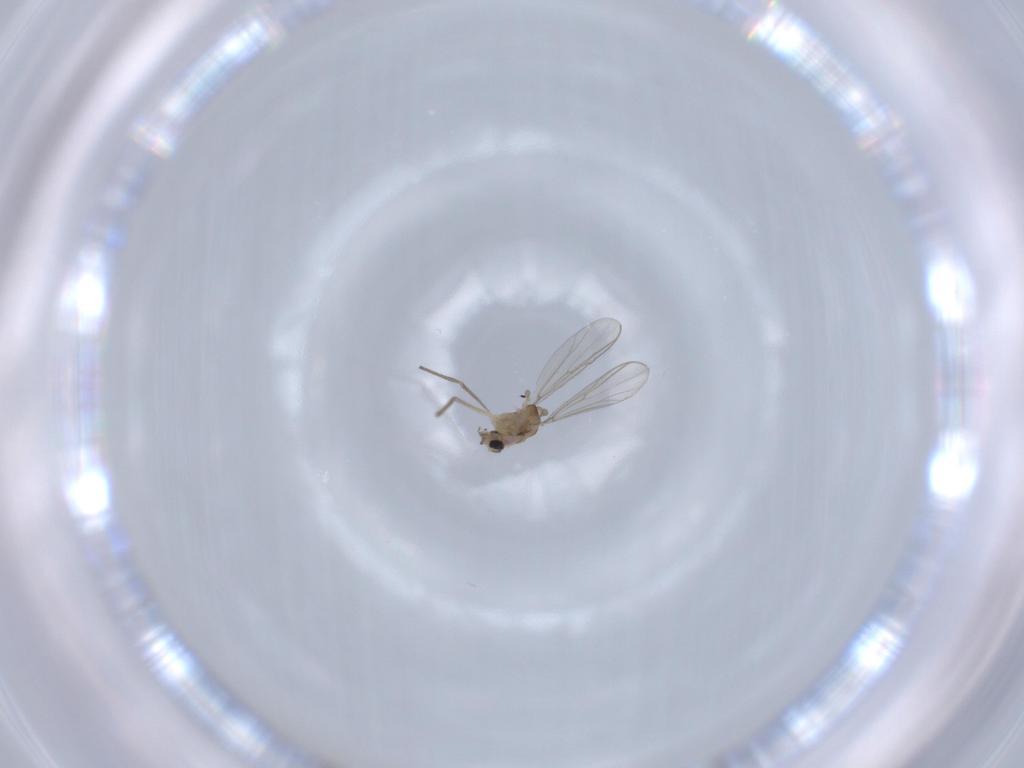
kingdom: Animalia
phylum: Arthropoda
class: Insecta
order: Diptera
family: Chironomidae
